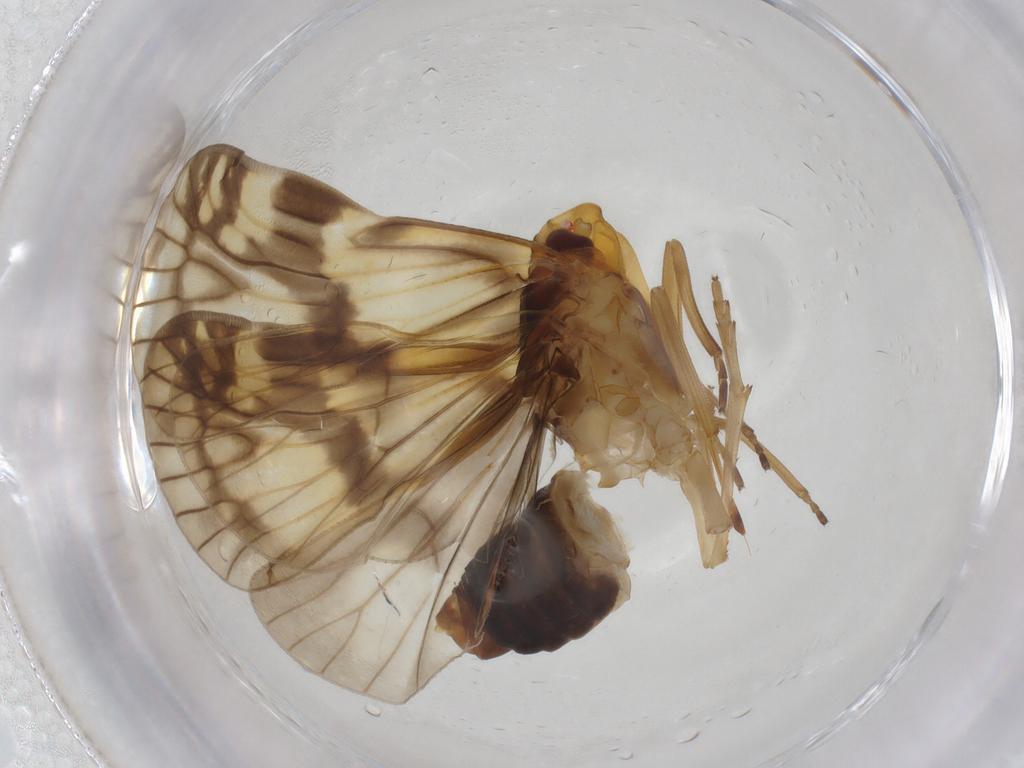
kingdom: Animalia
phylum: Arthropoda
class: Insecta
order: Hemiptera
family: Cixiidae
